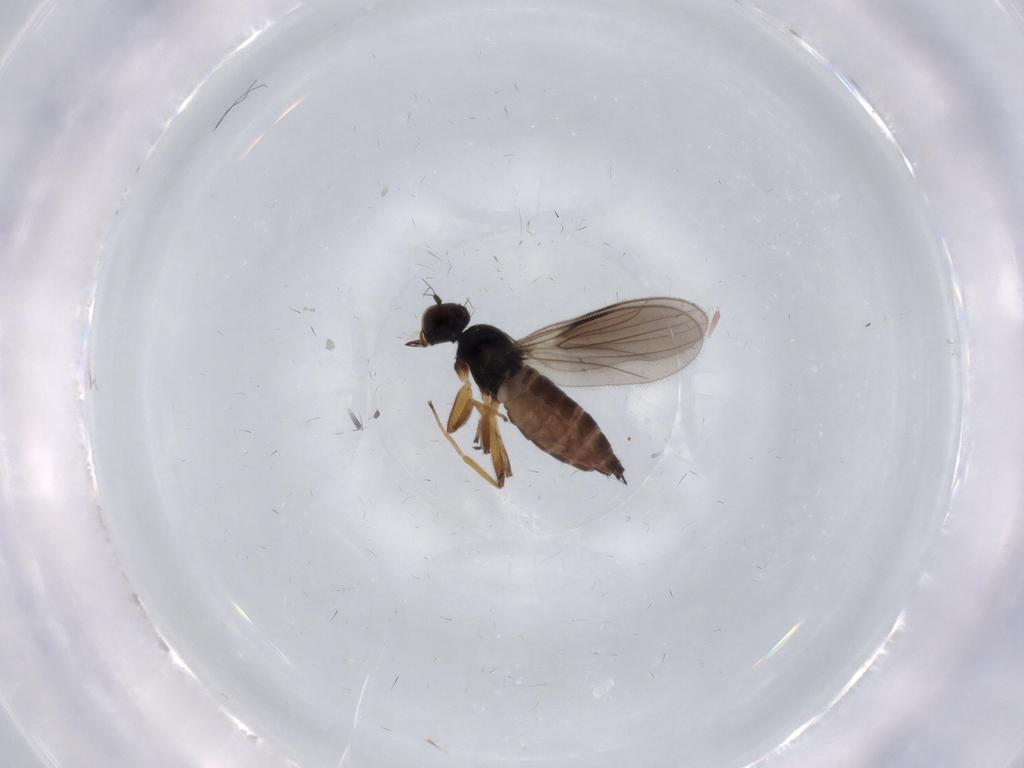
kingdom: Animalia
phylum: Arthropoda
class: Insecta
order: Diptera
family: Hybotidae
